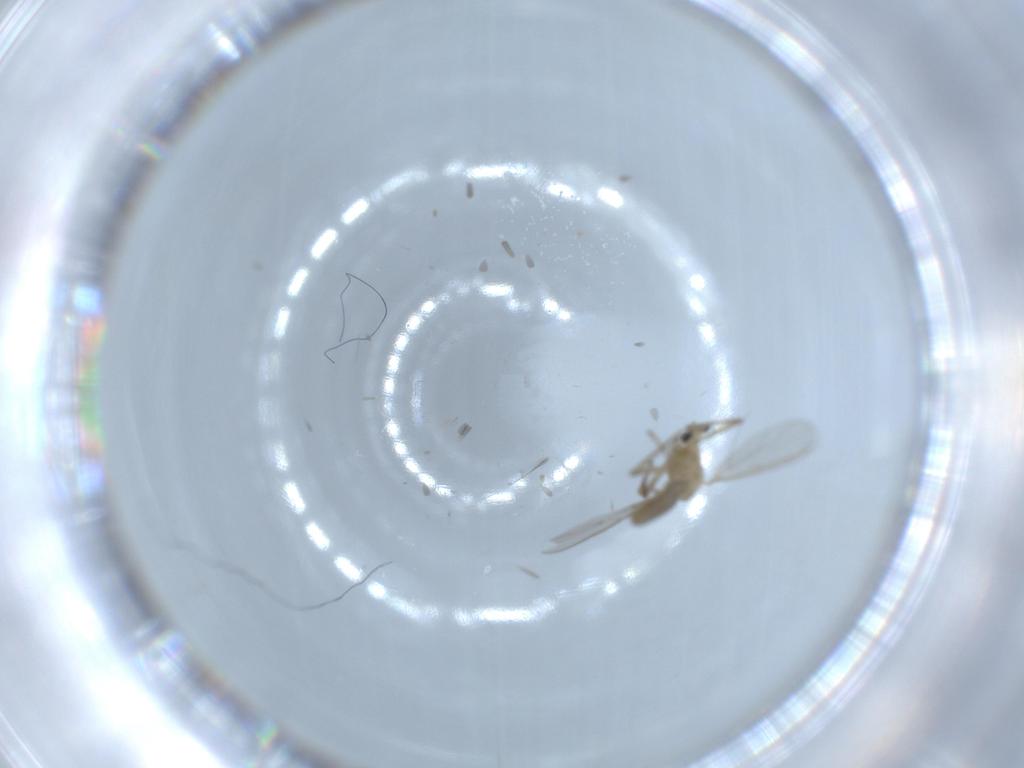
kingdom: Animalia
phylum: Arthropoda
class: Insecta
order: Diptera
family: Chironomidae
